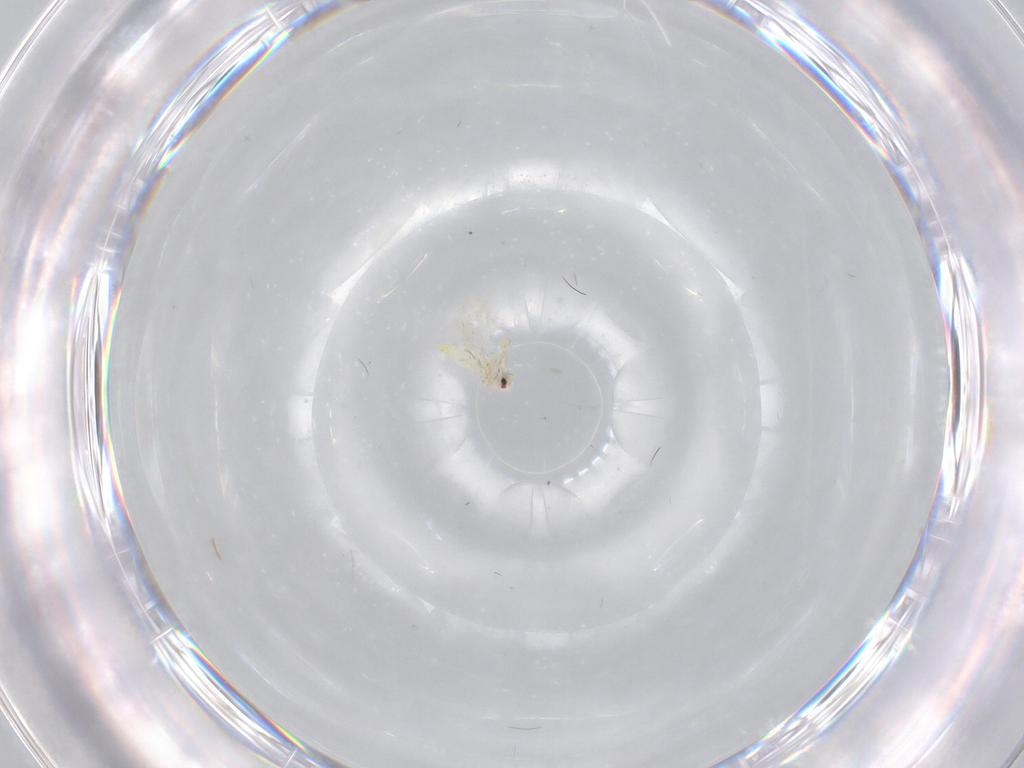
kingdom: Animalia
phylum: Arthropoda
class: Insecta
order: Hemiptera
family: Aleyrodidae
